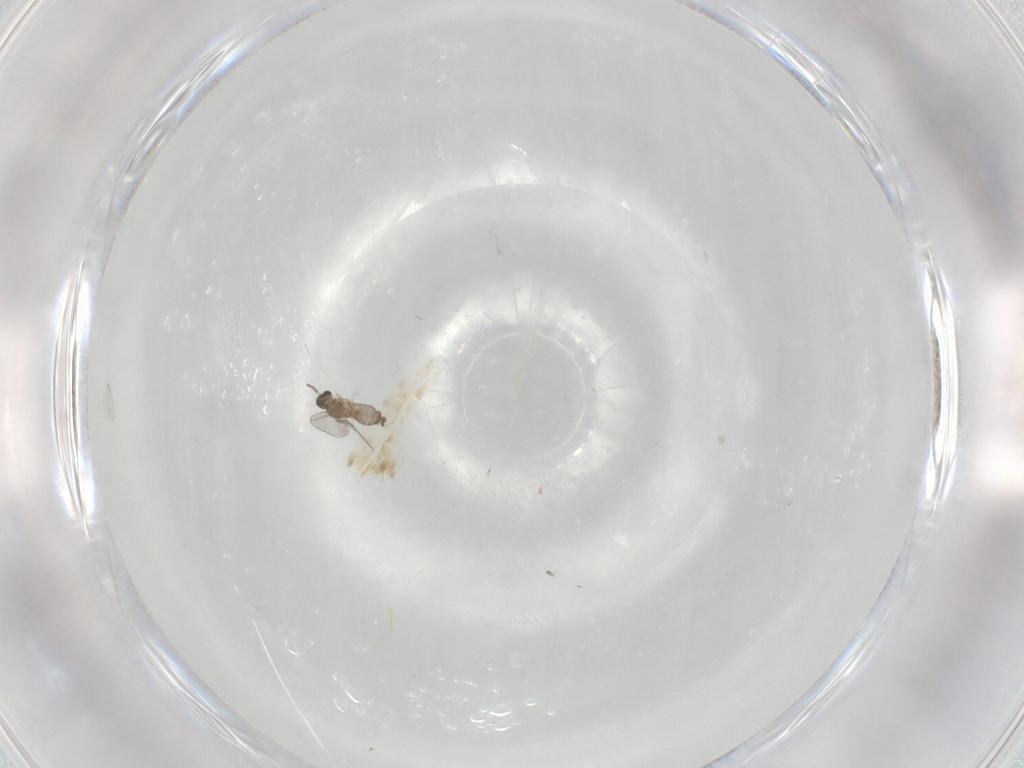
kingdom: Animalia
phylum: Arthropoda
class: Insecta
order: Diptera
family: Cecidomyiidae
